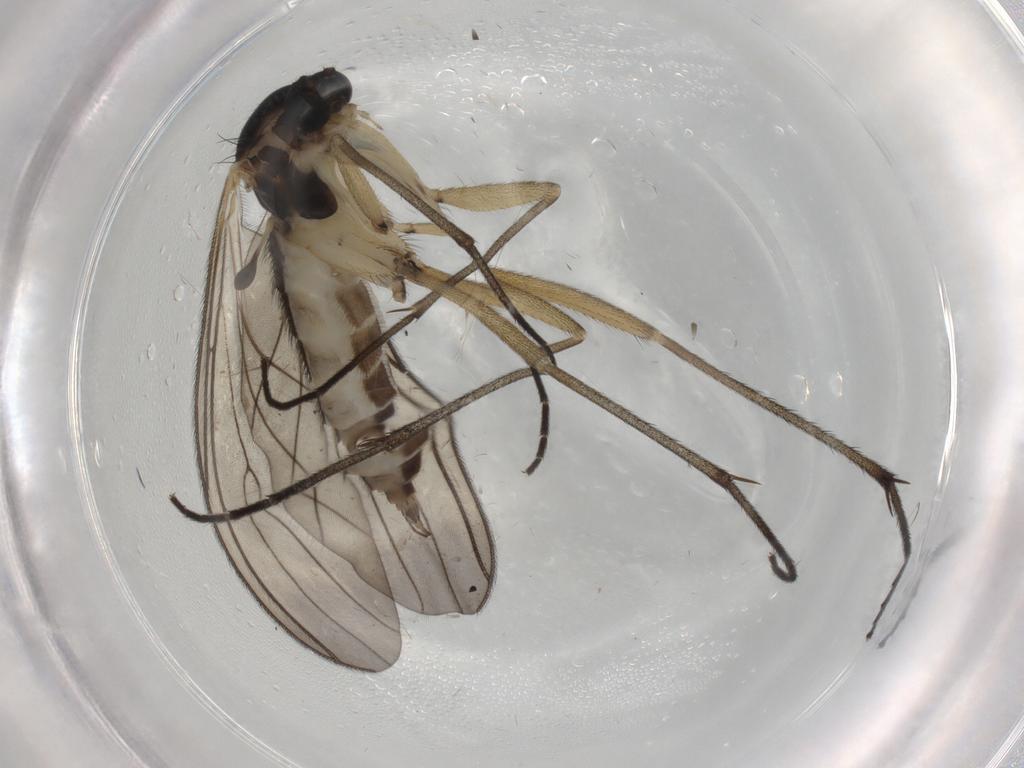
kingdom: Animalia
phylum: Arthropoda
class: Insecta
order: Diptera
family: Sciaridae
